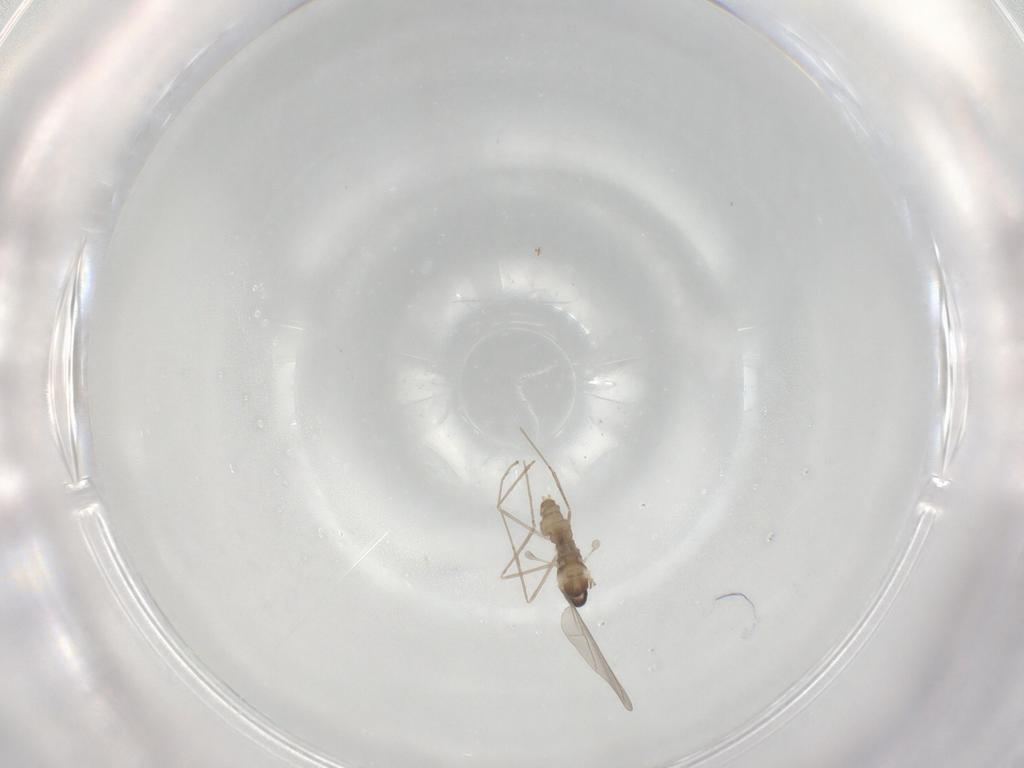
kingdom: Animalia
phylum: Arthropoda
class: Insecta
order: Diptera
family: Cecidomyiidae
